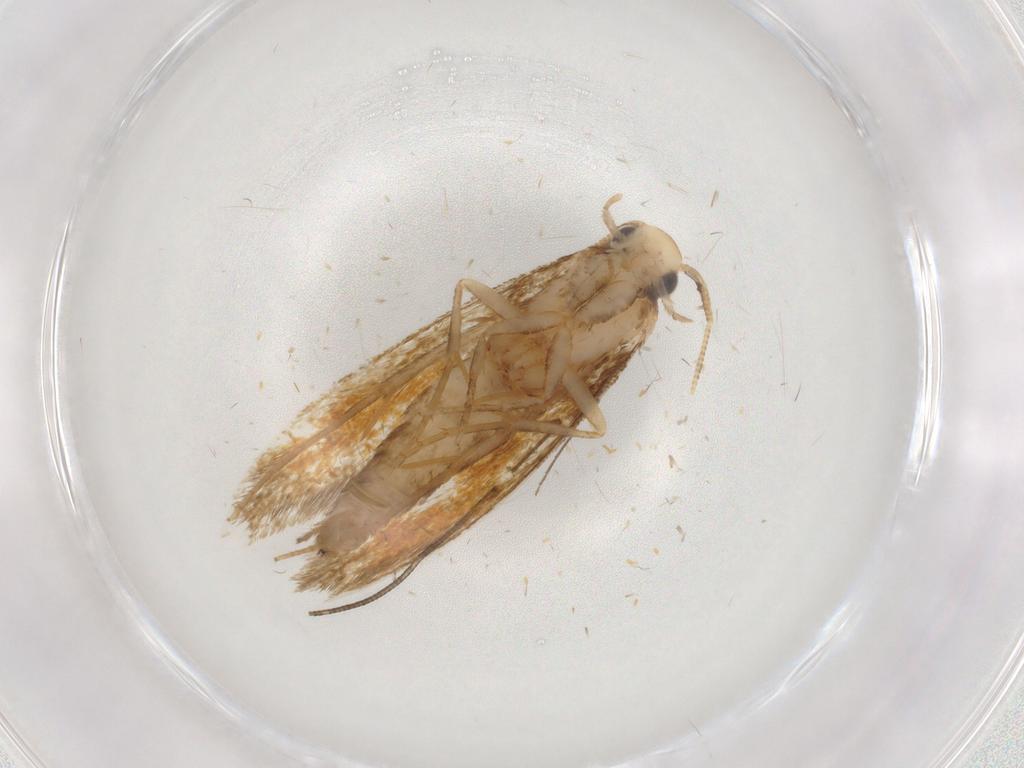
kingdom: Animalia
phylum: Arthropoda
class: Insecta
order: Lepidoptera
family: Tineidae
